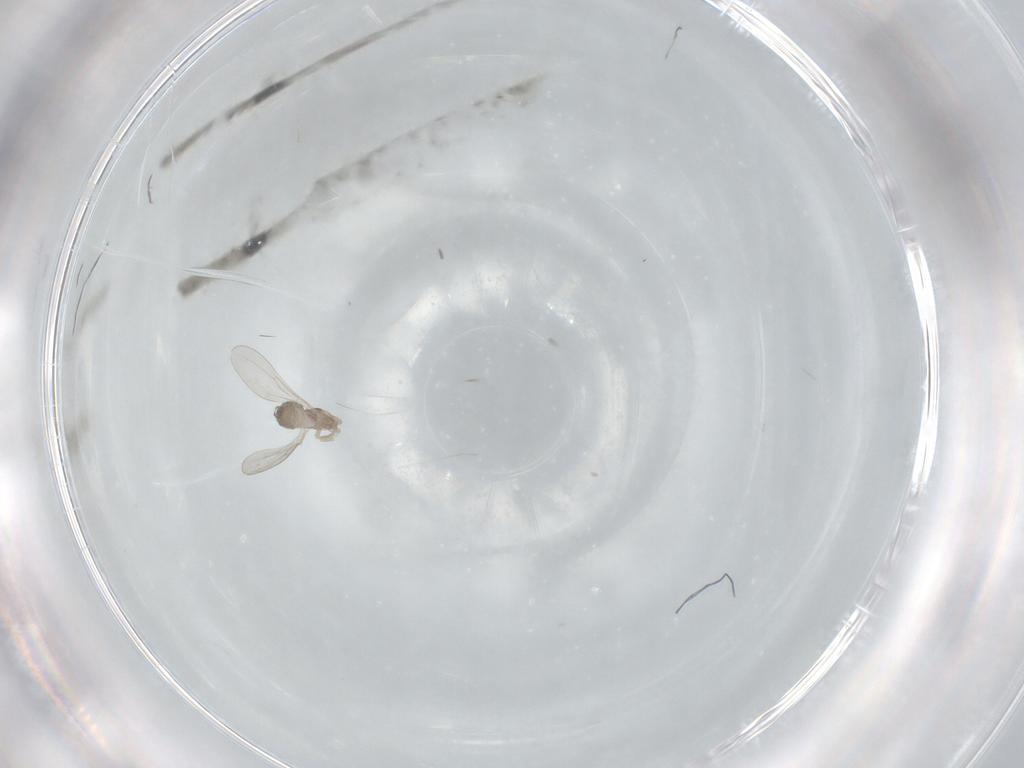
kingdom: Animalia
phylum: Arthropoda
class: Insecta
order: Diptera
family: Cecidomyiidae
